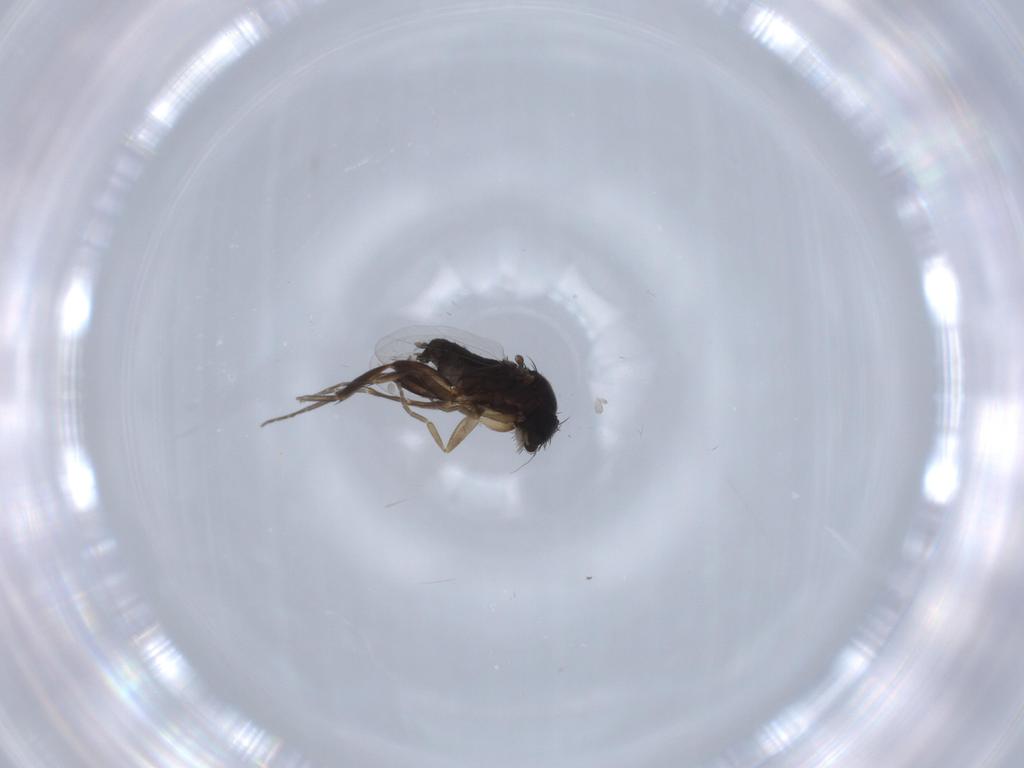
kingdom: Animalia
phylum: Arthropoda
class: Insecta
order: Diptera
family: Phoridae
